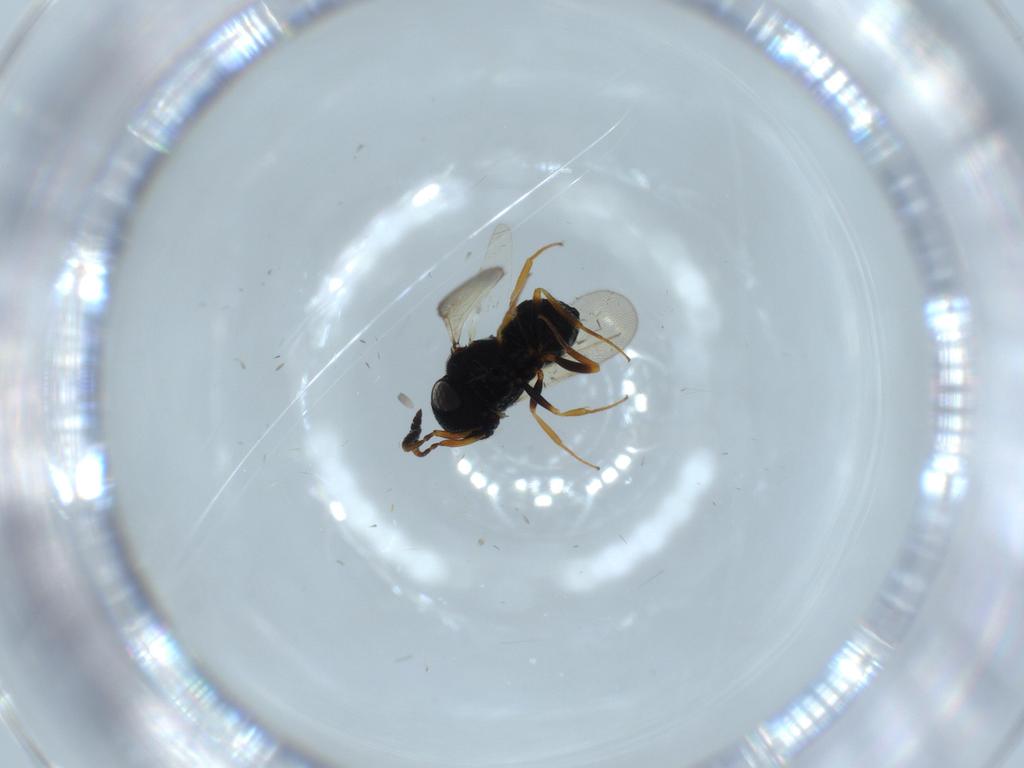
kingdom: Animalia
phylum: Arthropoda
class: Insecta
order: Hymenoptera
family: Scelionidae
